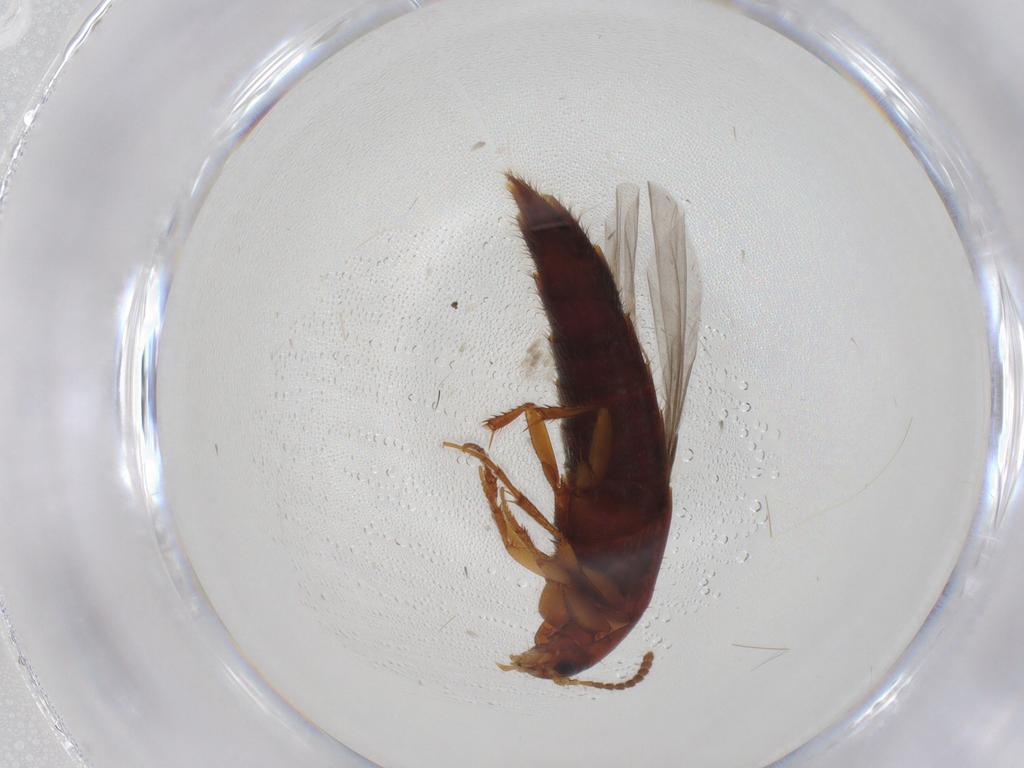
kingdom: Animalia
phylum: Arthropoda
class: Insecta
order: Coleoptera
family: Staphylinidae
